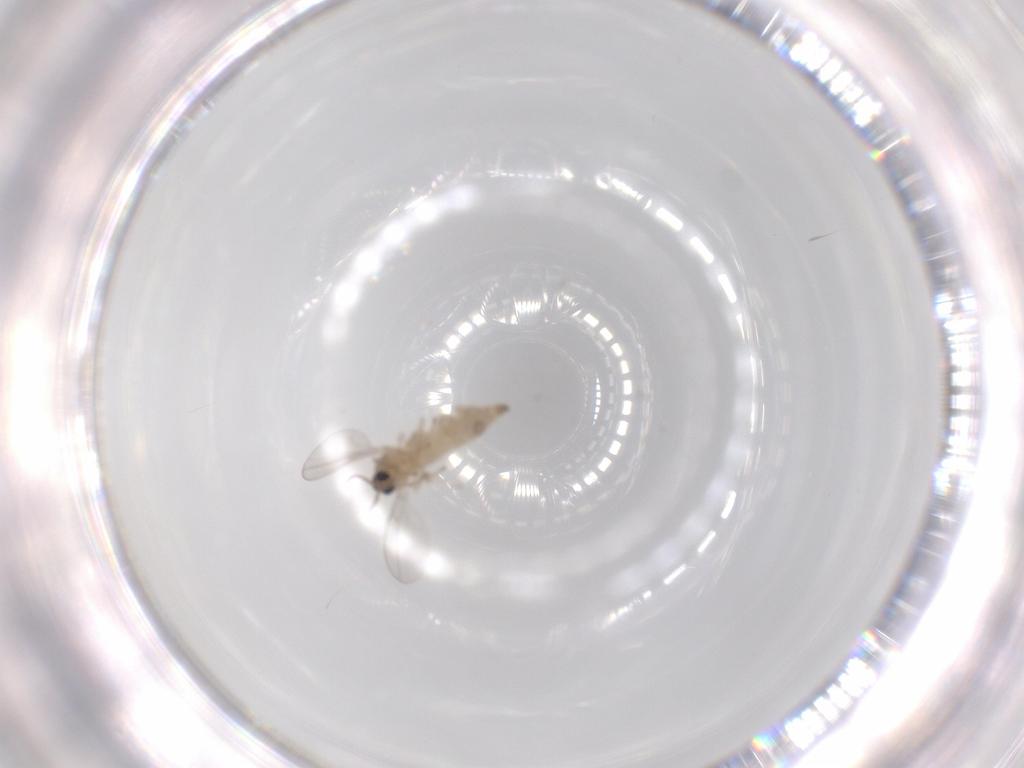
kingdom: Animalia
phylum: Arthropoda
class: Insecta
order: Diptera
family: Cecidomyiidae
